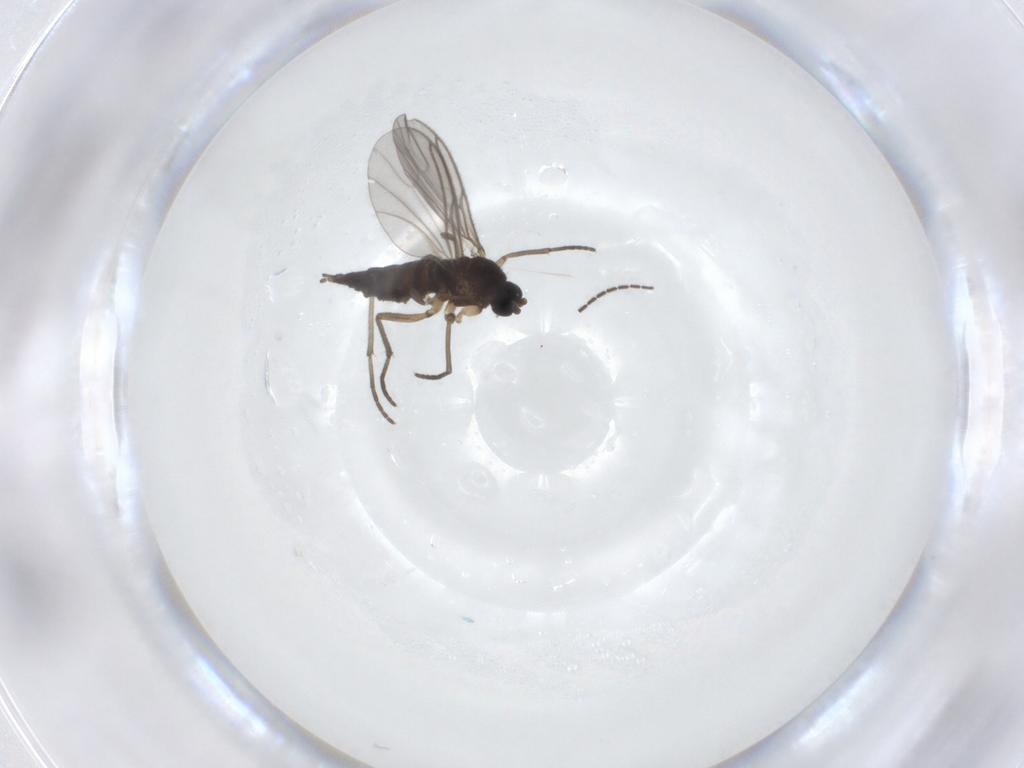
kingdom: Animalia
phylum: Arthropoda
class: Insecta
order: Diptera
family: Sciaridae
